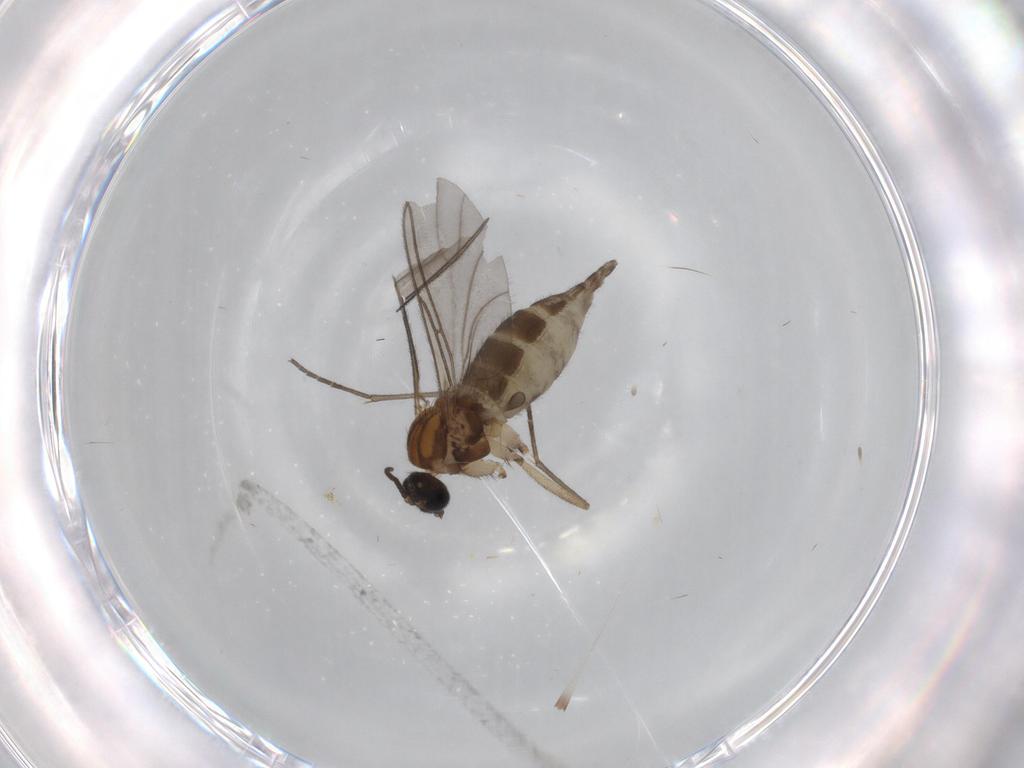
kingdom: Animalia
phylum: Arthropoda
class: Insecta
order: Diptera
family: Sciaridae
